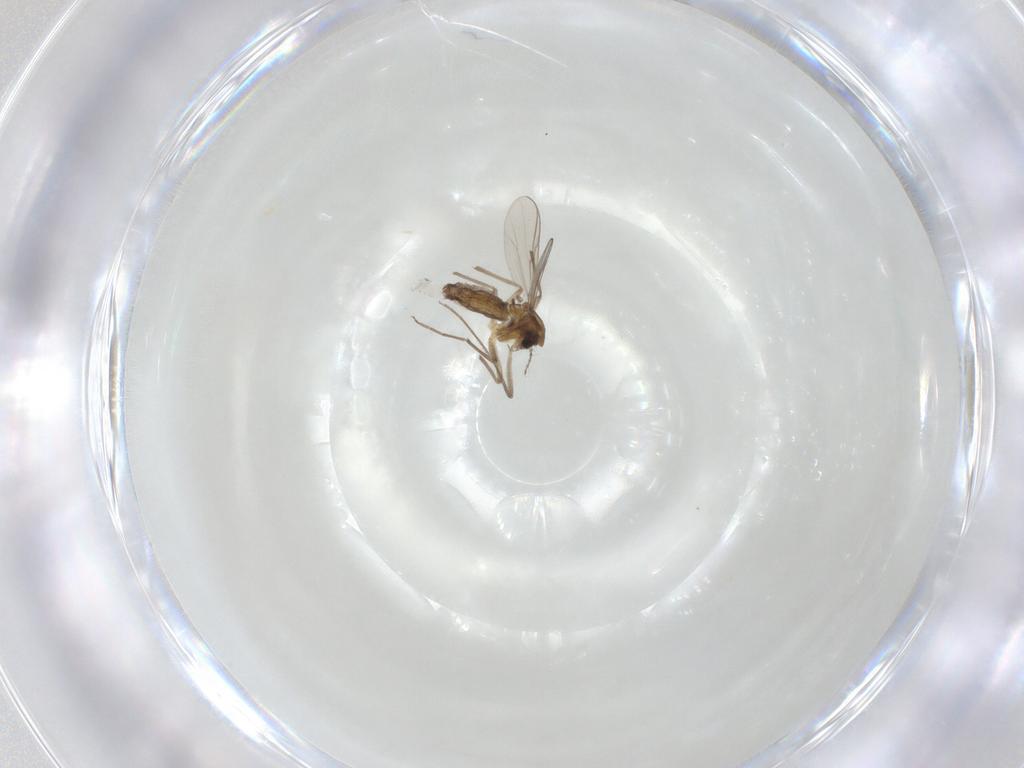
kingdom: Animalia
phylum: Arthropoda
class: Insecta
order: Diptera
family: Chironomidae
